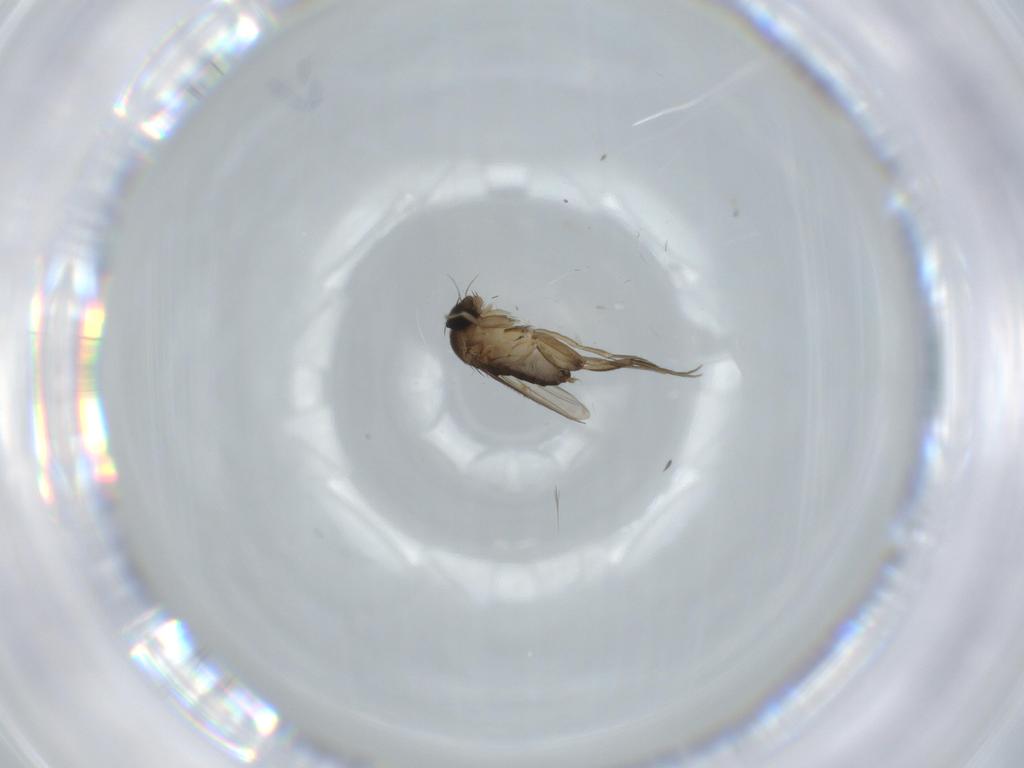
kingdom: Animalia
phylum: Arthropoda
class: Insecta
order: Diptera
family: Phoridae
